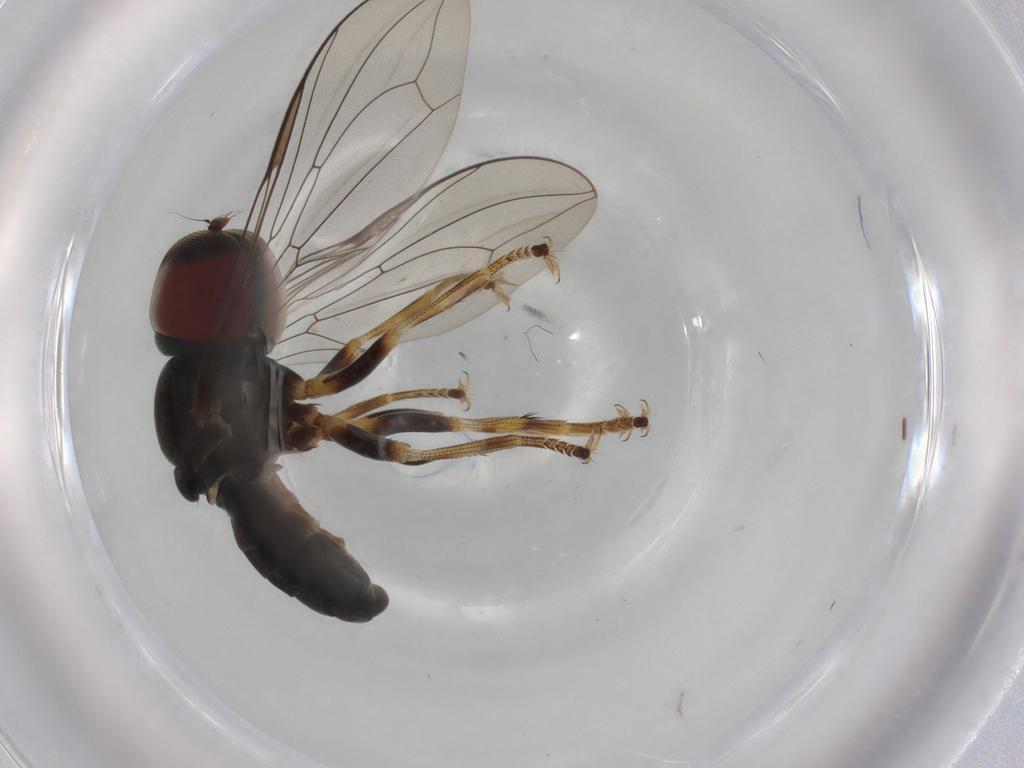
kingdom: Animalia
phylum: Arthropoda
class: Insecta
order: Diptera
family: Pipunculidae
